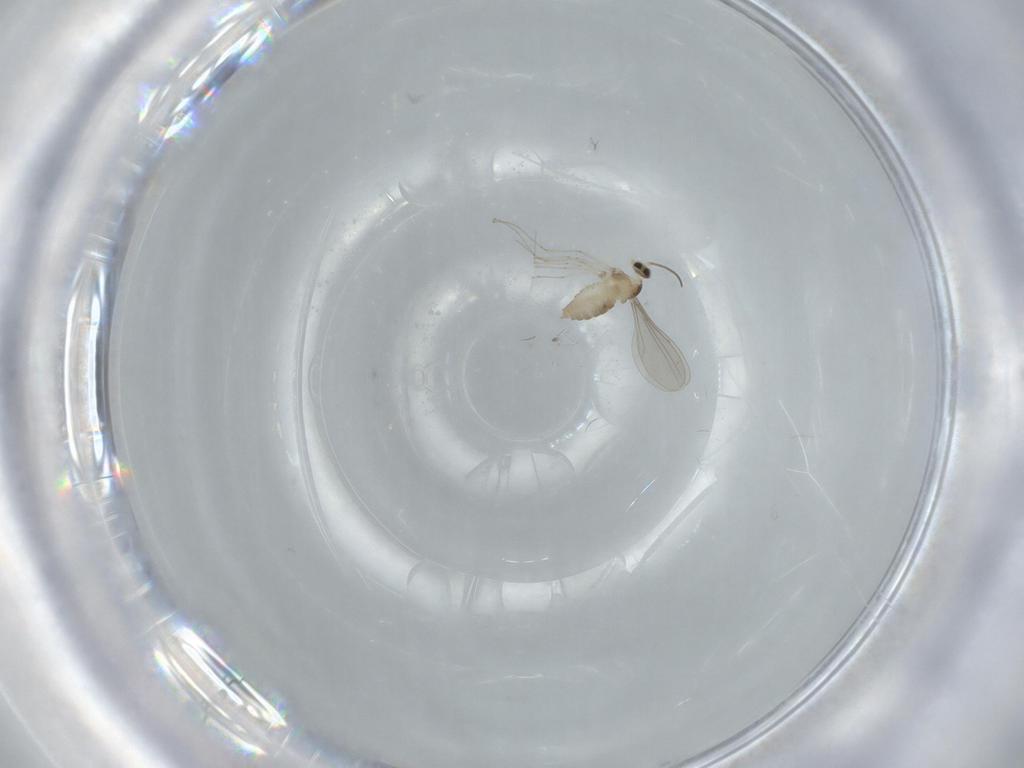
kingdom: Animalia
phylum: Arthropoda
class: Insecta
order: Diptera
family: Cecidomyiidae
